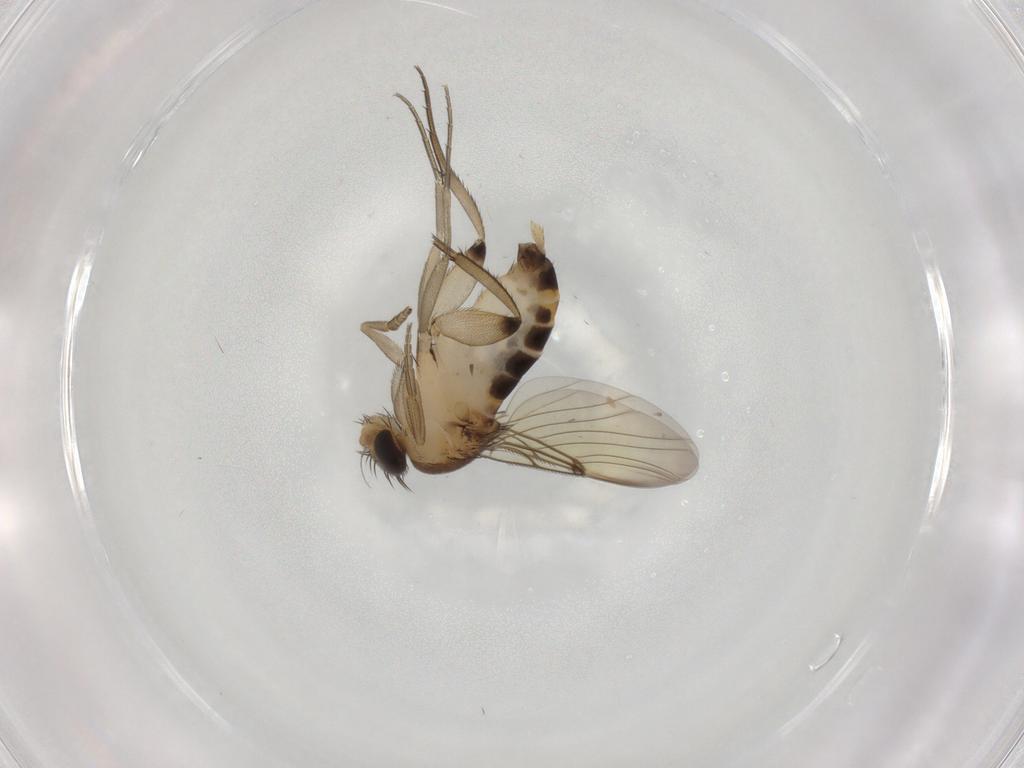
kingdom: Animalia
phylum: Arthropoda
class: Insecta
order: Diptera
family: Phoridae
